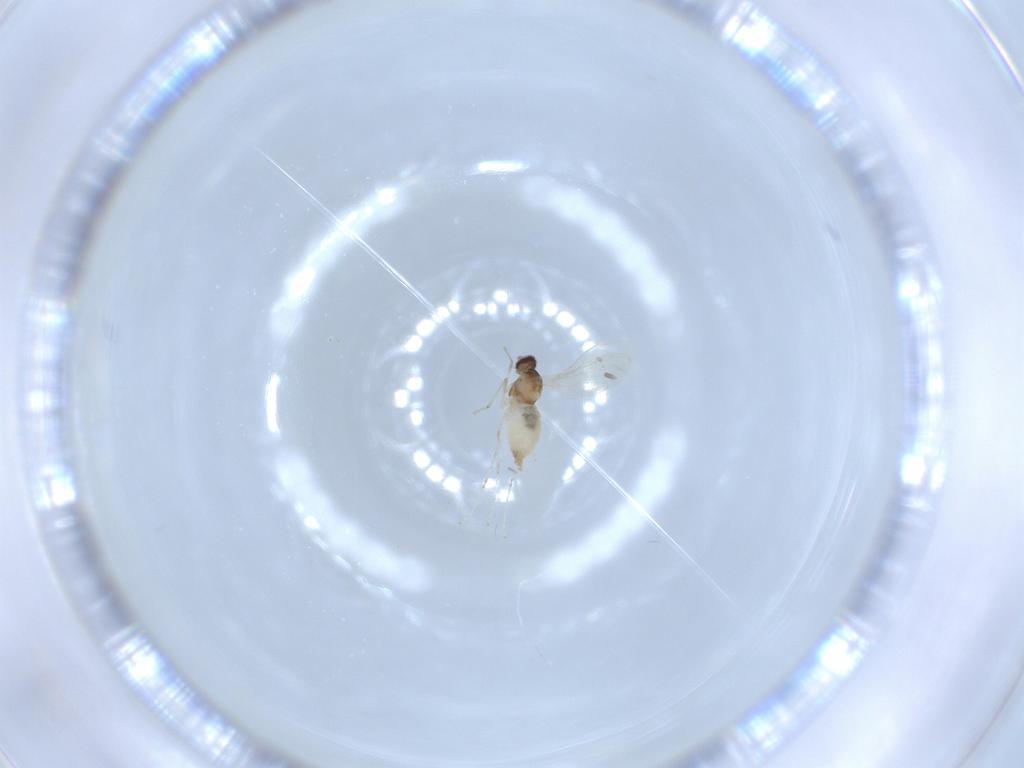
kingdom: Animalia
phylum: Arthropoda
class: Insecta
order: Diptera
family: Cecidomyiidae
